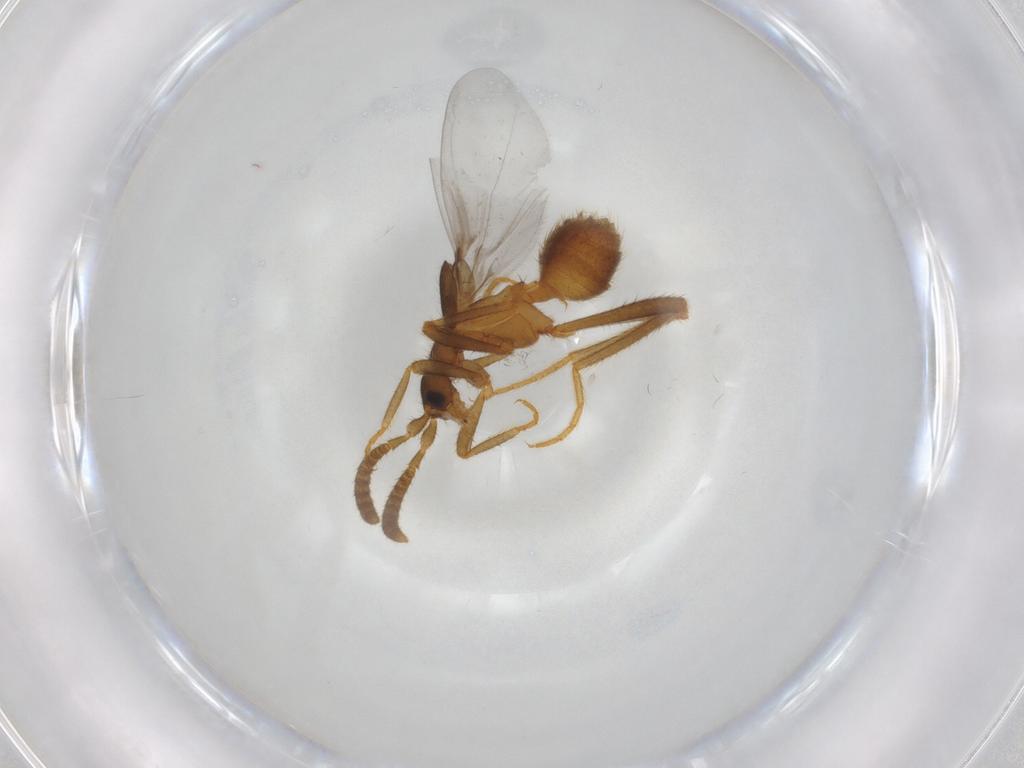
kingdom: Animalia
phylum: Arthropoda
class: Insecta
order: Coleoptera
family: Staphylinidae
